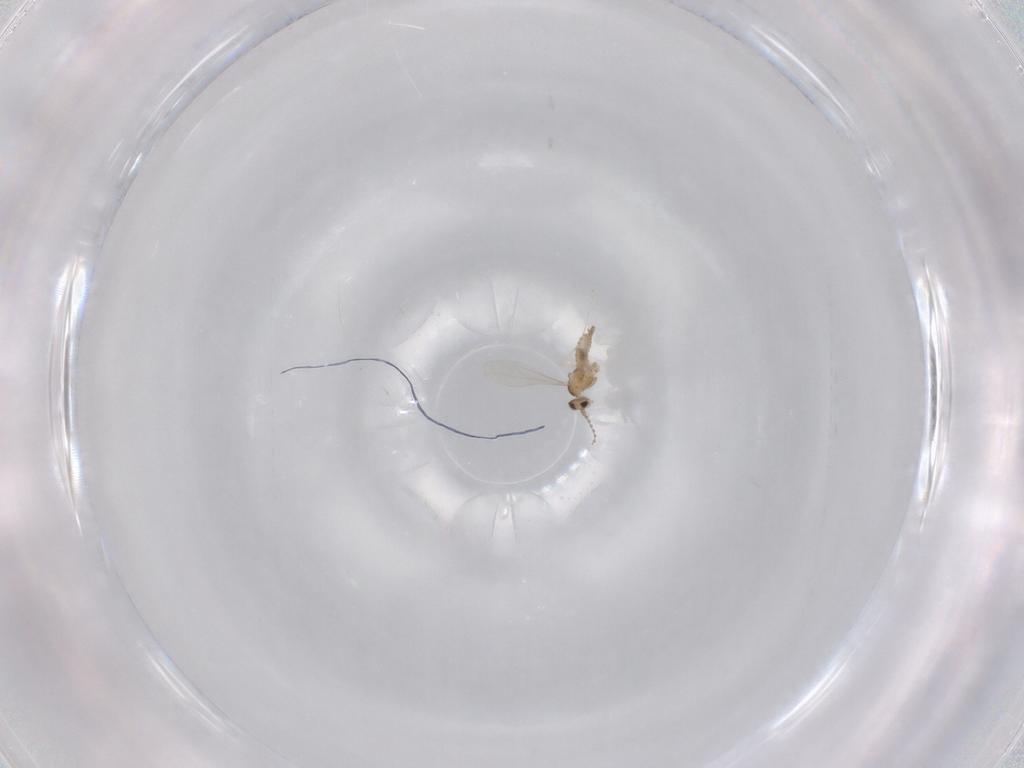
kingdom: Animalia
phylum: Arthropoda
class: Insecta
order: Diptera
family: Cecidomyiidae
